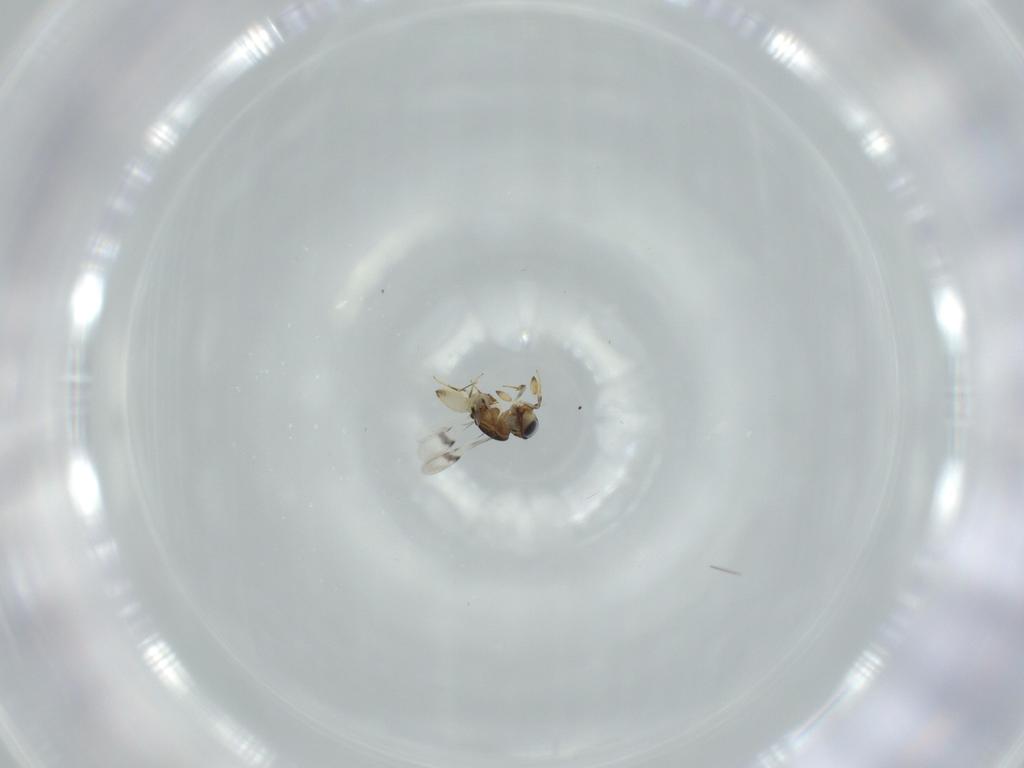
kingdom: Animalia
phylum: Arthropoda
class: Insecta
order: Hymenoptera
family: Scelionidae
